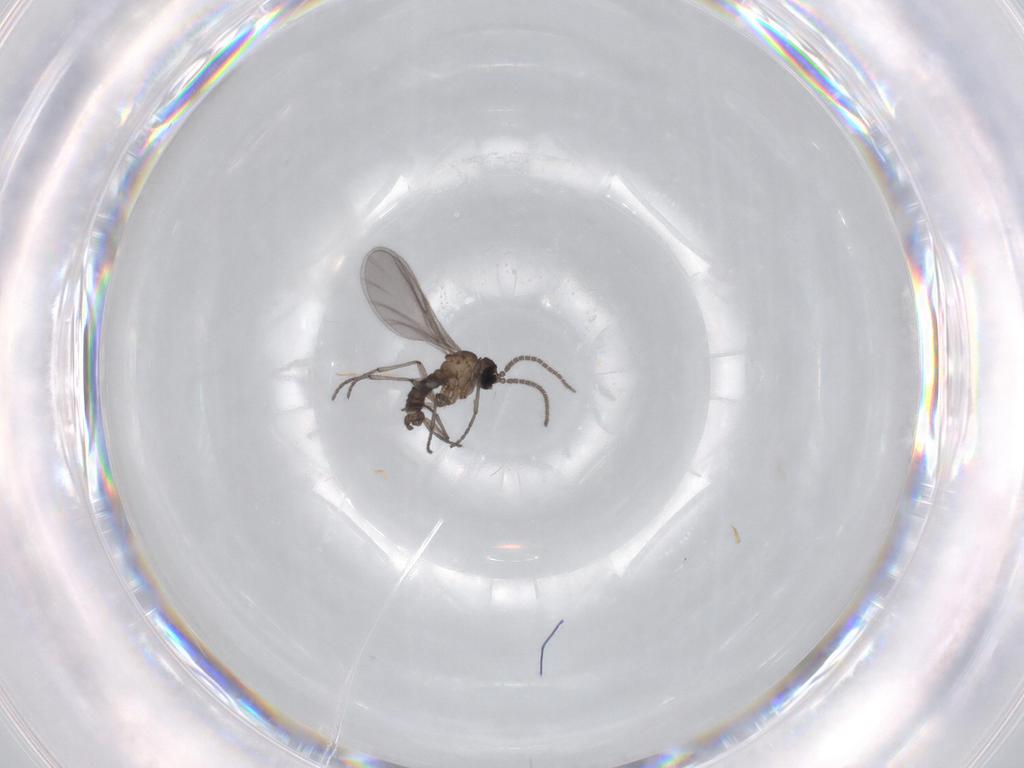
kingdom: Animalia
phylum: Arthropoda
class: Insecta
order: Diptera
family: Sciaridae
